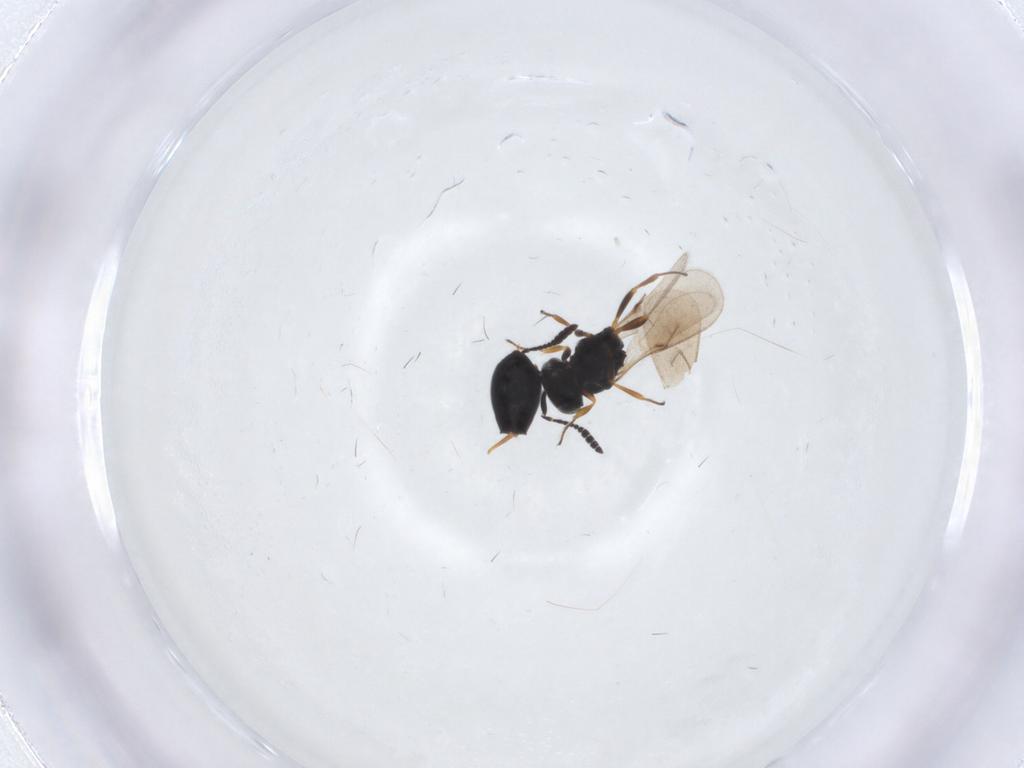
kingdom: Animalia
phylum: Arthropoda
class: Insecta
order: Hymenoptera
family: Scelionidae
